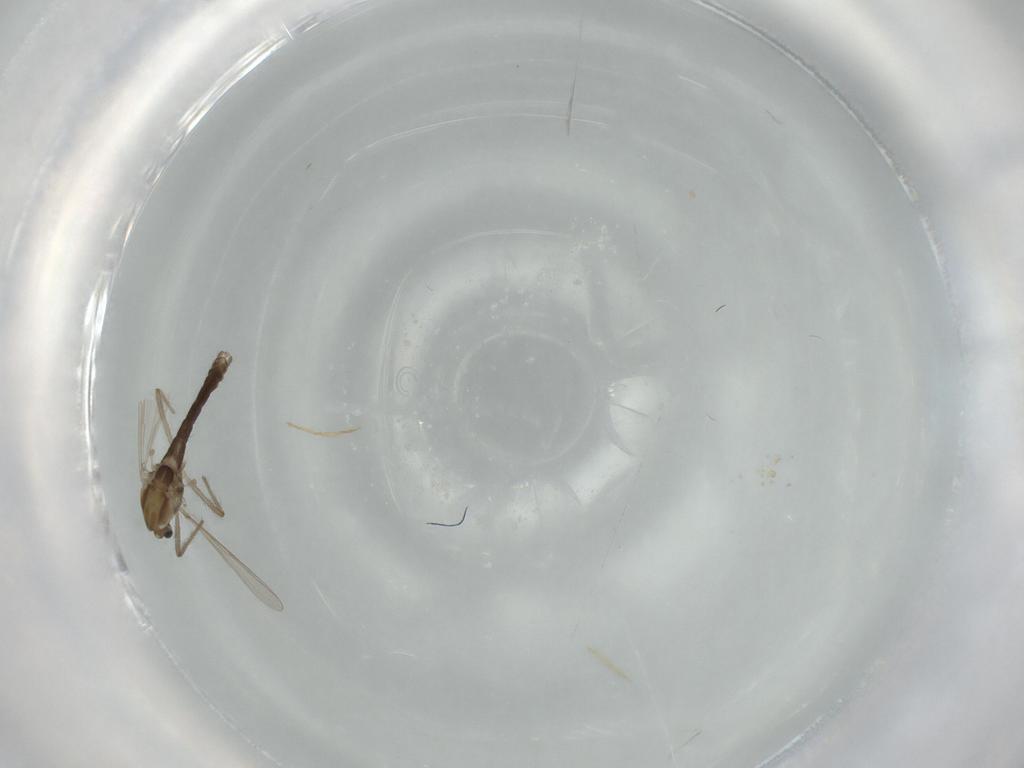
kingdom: Animalia
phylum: Arthropoda
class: Insecta
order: Diptera
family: Chironomidae
